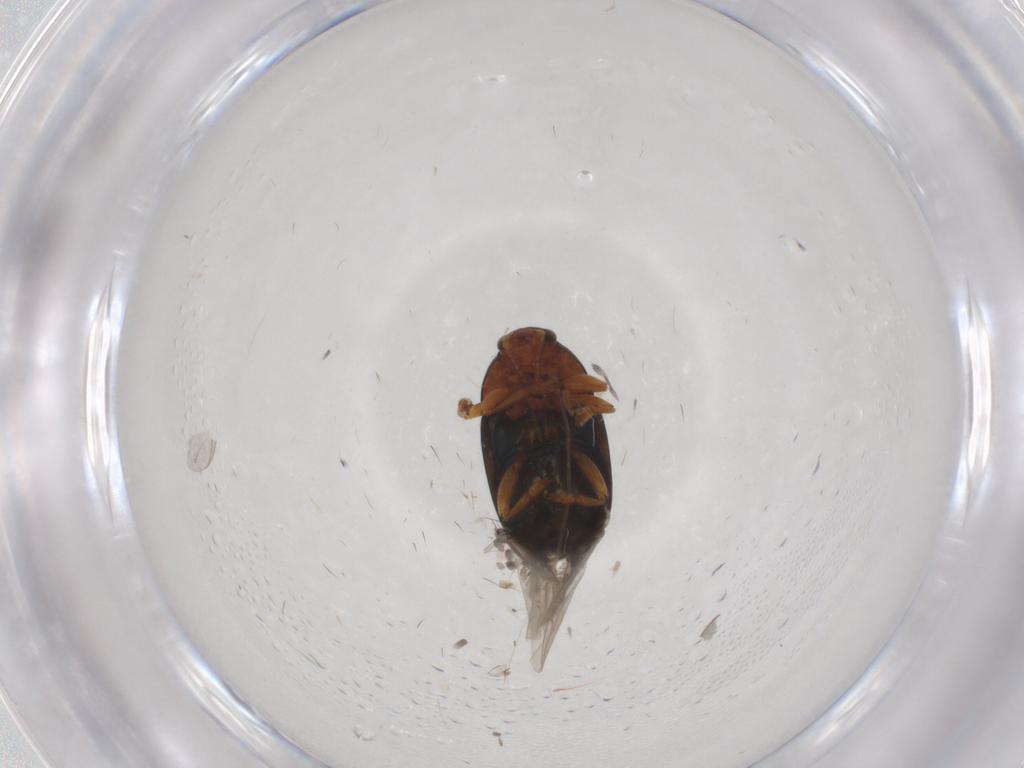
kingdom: Animalia
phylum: Arthropoda
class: Insecta
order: Coleoptera
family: Ptilodactylidae
